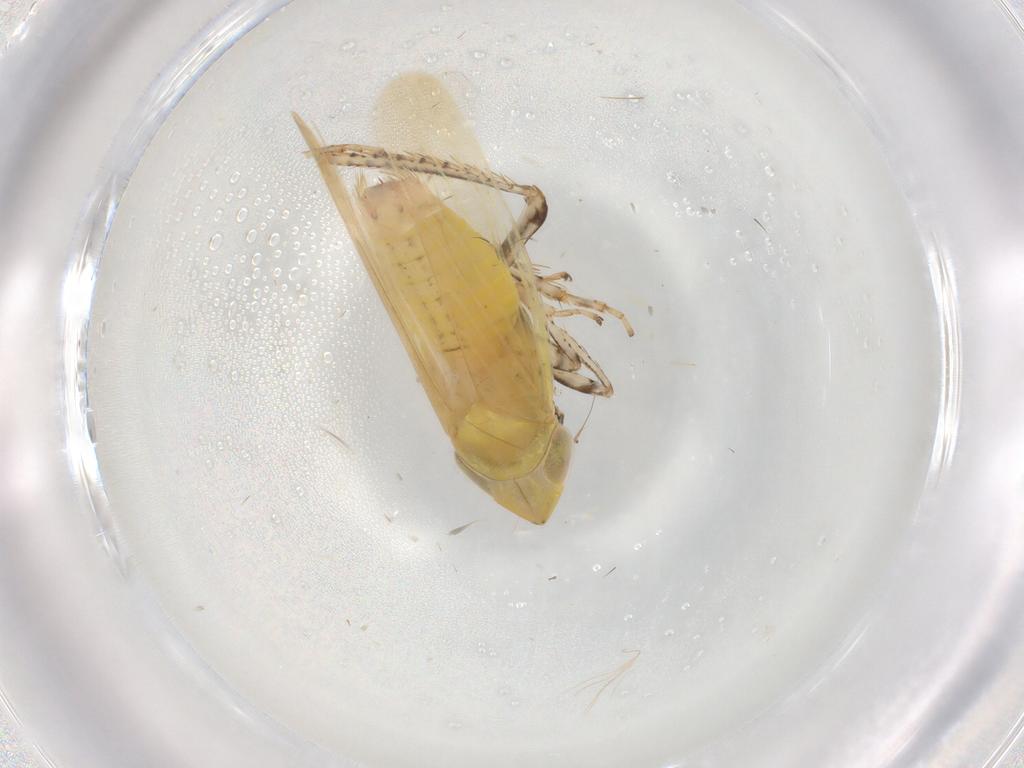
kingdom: Animalia
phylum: Arthropoda
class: Insecta
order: Hemiptera
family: Cicadellidae
